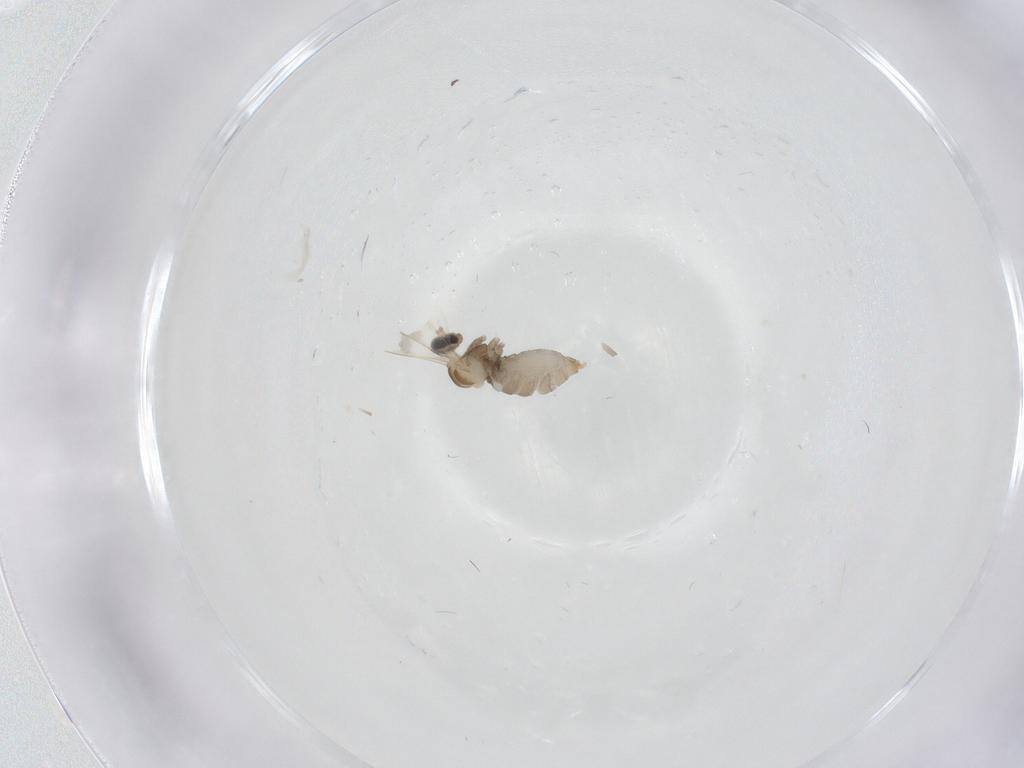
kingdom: Animalia
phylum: Arthropoda
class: Insecta
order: Diptera
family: Cecidomyiidae
